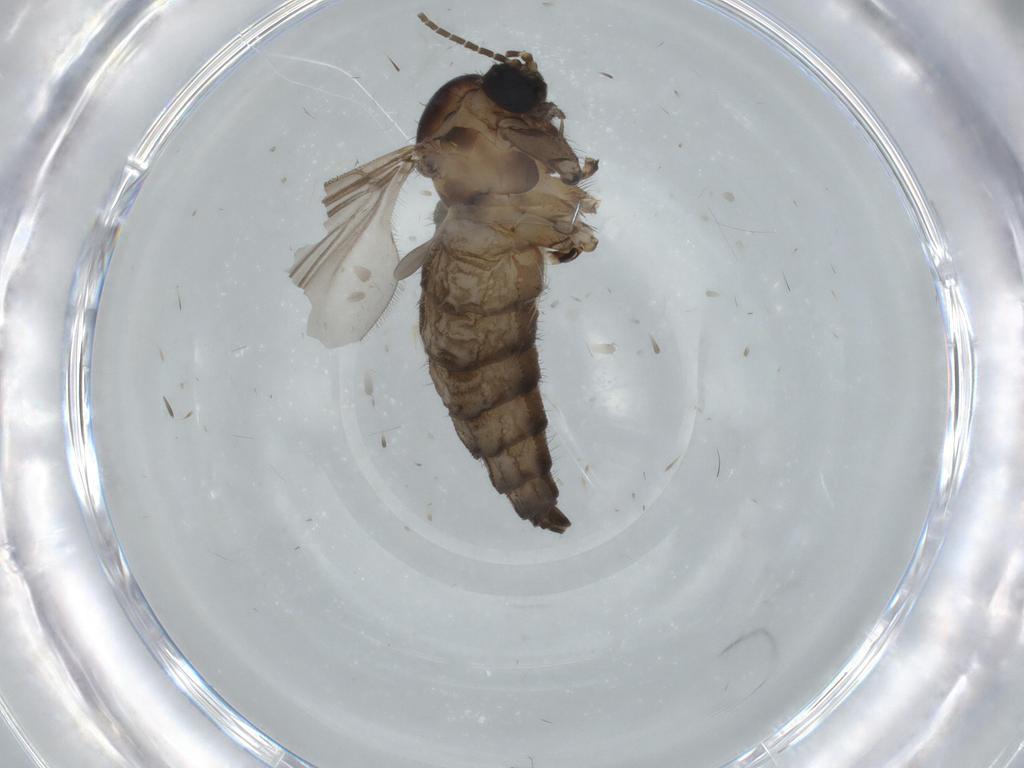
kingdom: Animalia
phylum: Arthropoda
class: Insecta
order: Diptera
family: Sciaridae
